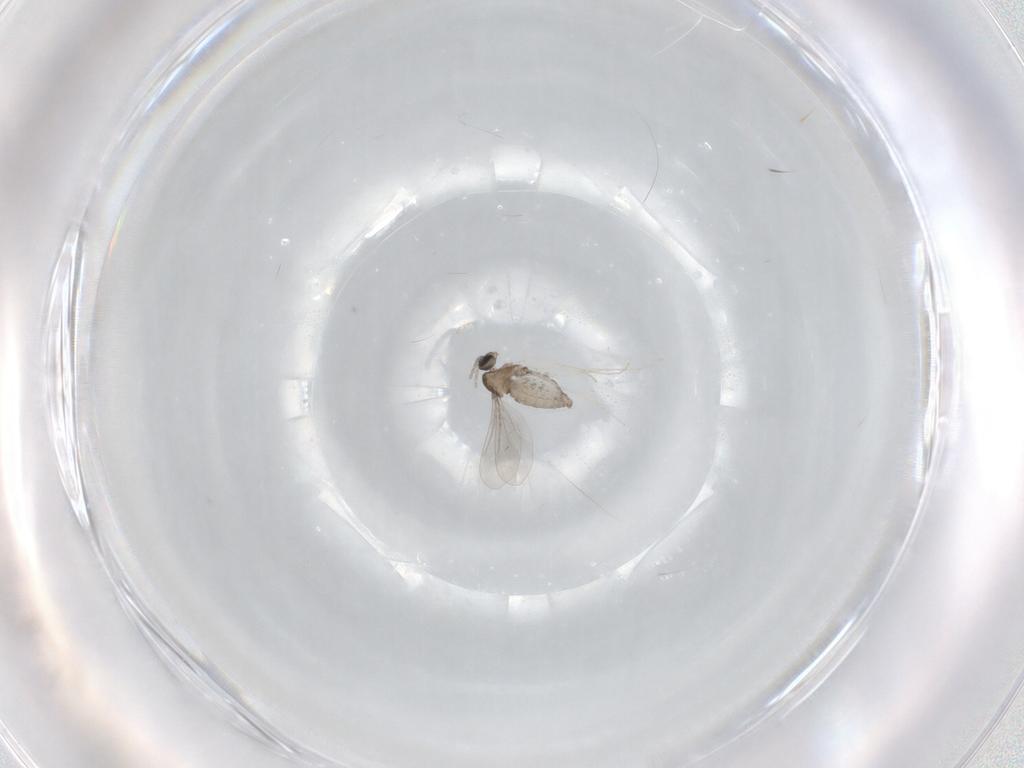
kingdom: Animalia
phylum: Arthropoda
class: Insecta
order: Diptera
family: Cecidomyiidae
